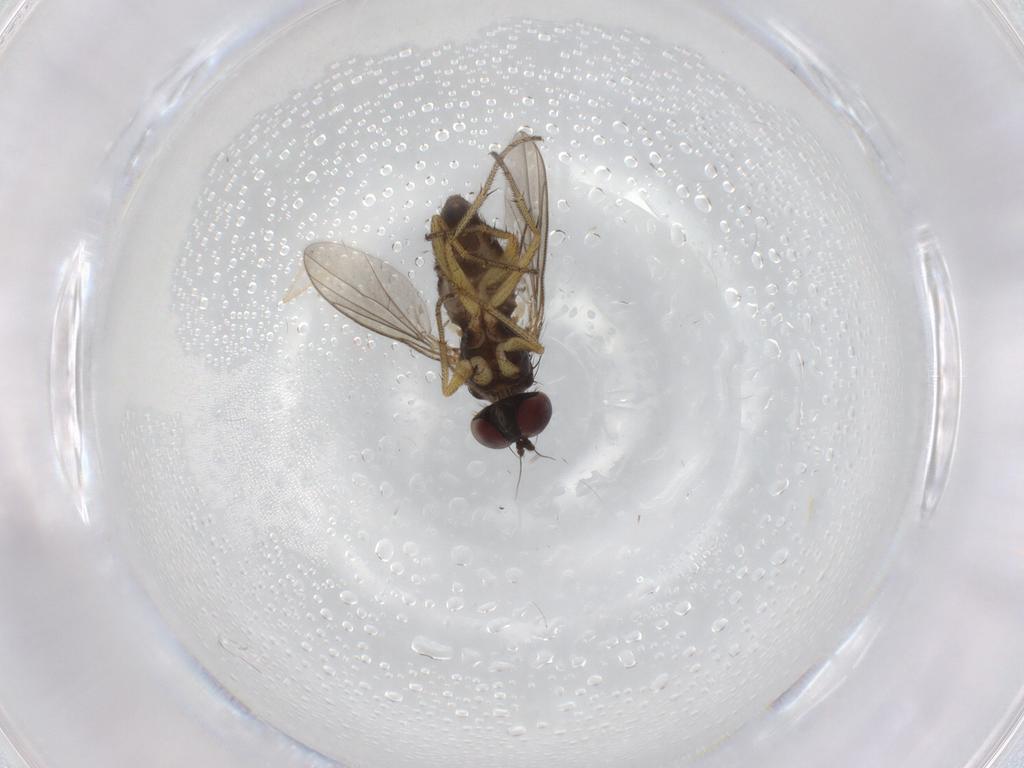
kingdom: Animalia
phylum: Arthropoda
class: Insecta
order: Diptera
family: Chironomidae
